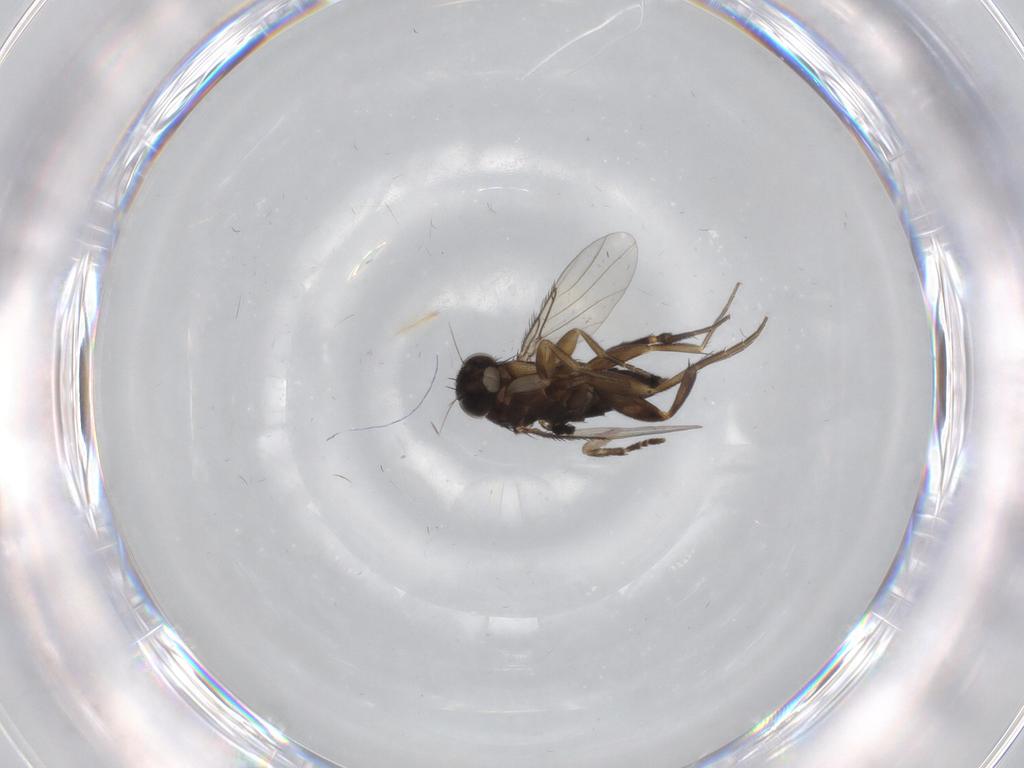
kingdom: Animalia
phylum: Arthropoda
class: Insecta
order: Diptera
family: Phoridae
